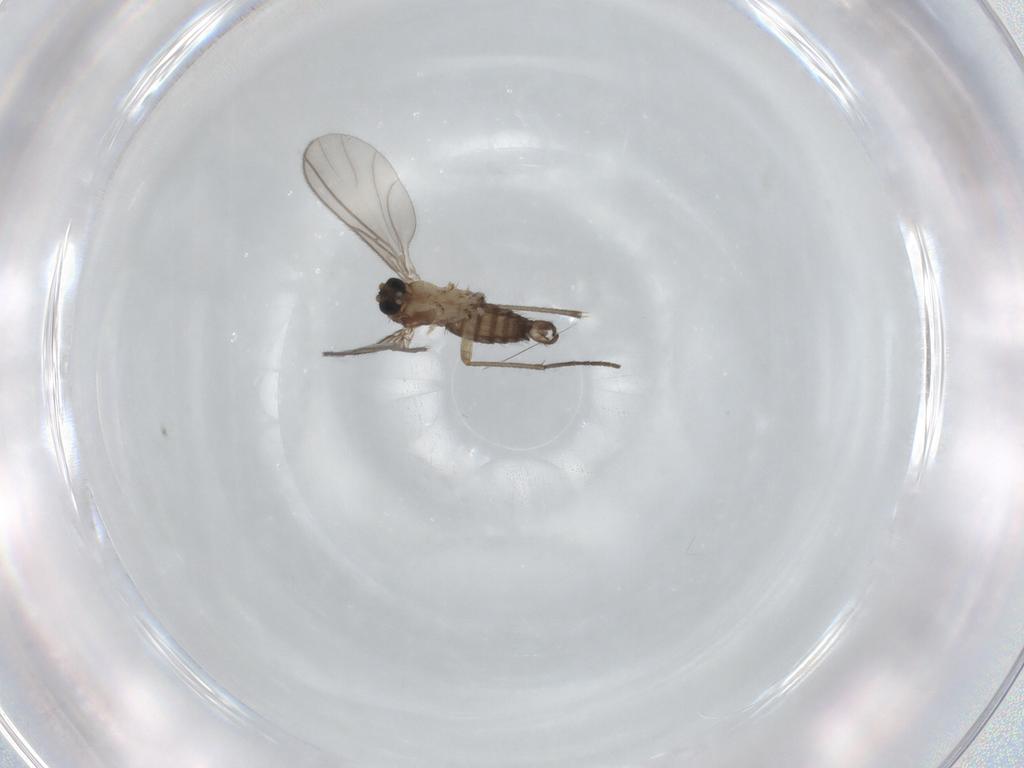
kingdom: Animalia
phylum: Arthropoda
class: Insecta
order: Diptera
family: Sciaridae
